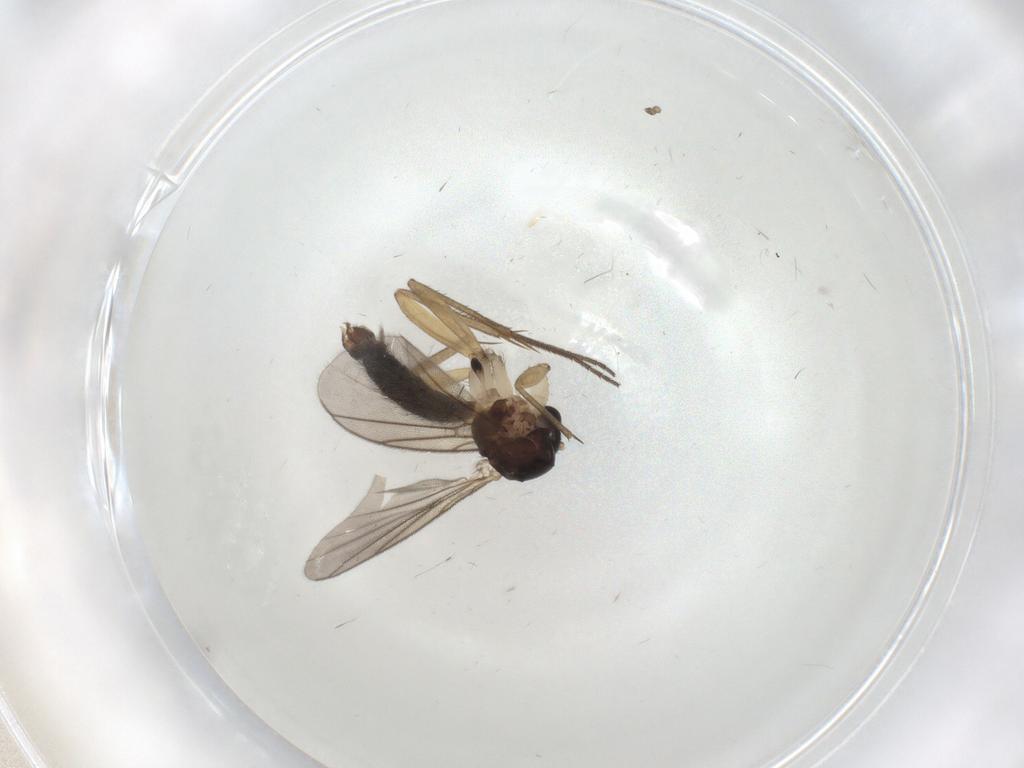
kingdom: Animalia
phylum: Arthropoda
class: Insecta
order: Diptera
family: Mycetophilidae
